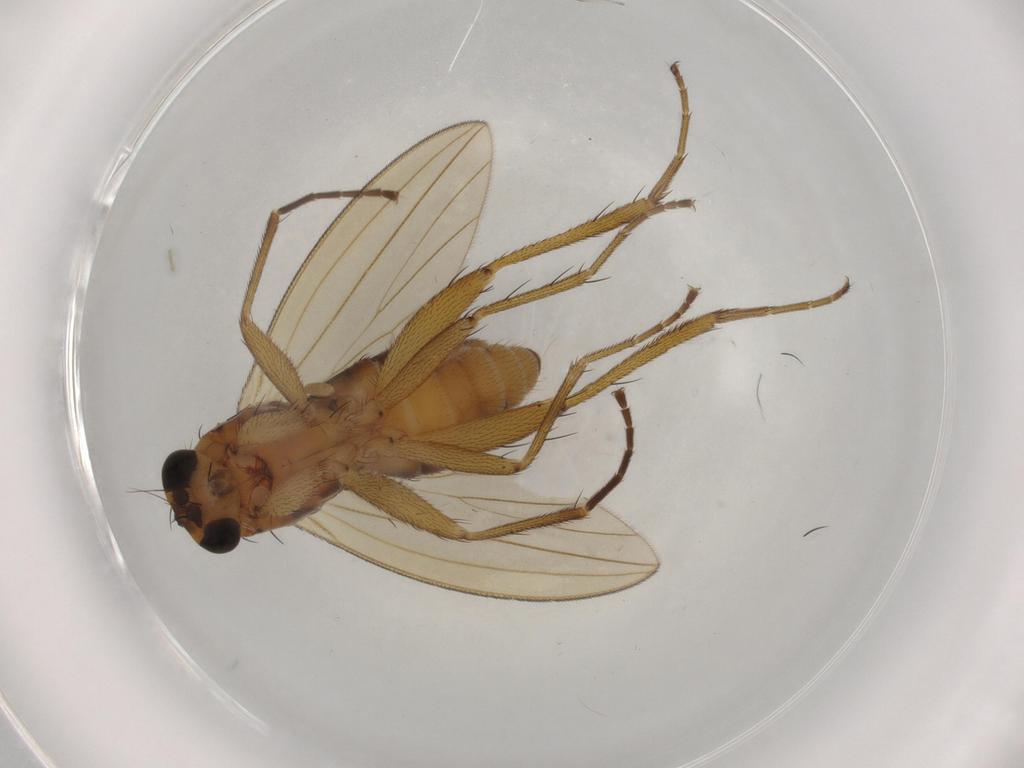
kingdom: Animalia
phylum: Arthropoda
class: Insecta
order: Diptera
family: Lonchopteridae
